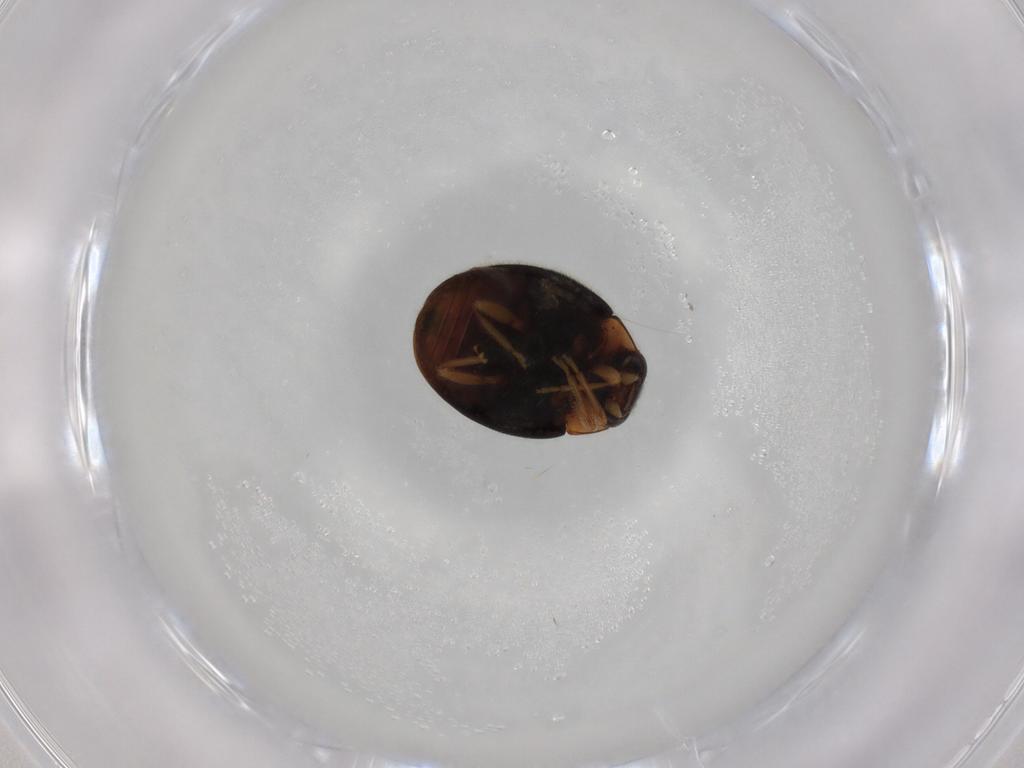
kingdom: Animalia
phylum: Arthropoda
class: Insecta
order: Coleoptera
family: Coccinellidae
